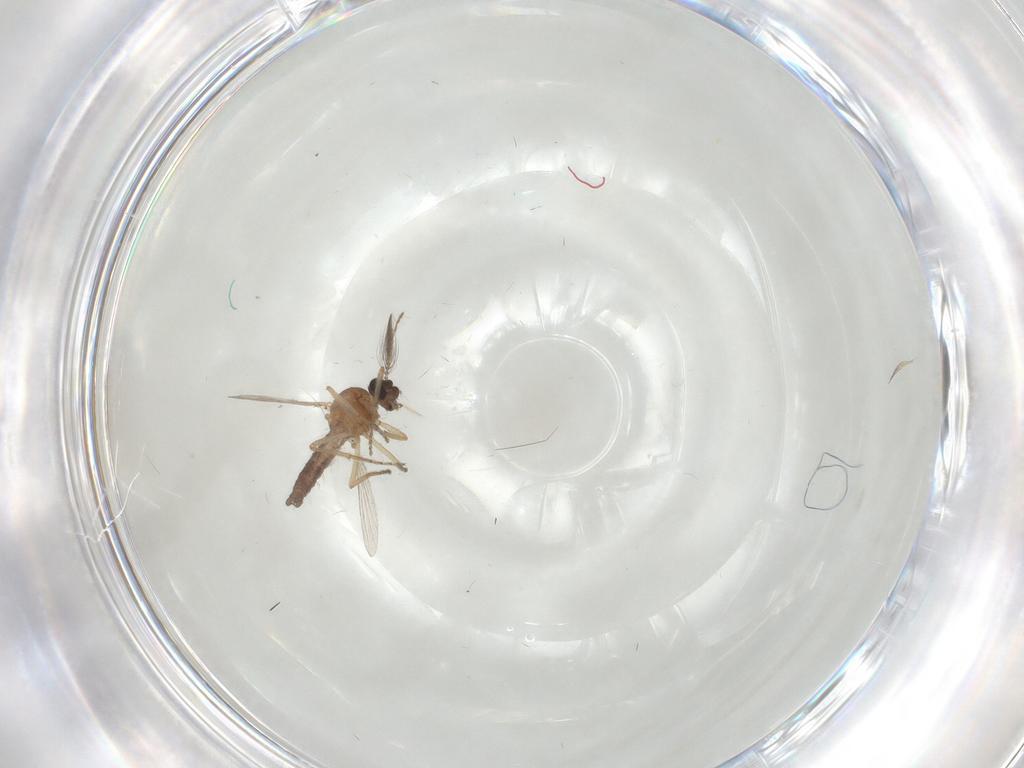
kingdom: Animalia
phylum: Arthropoda
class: Insecta
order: Diptera
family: Ceratopogonidae
